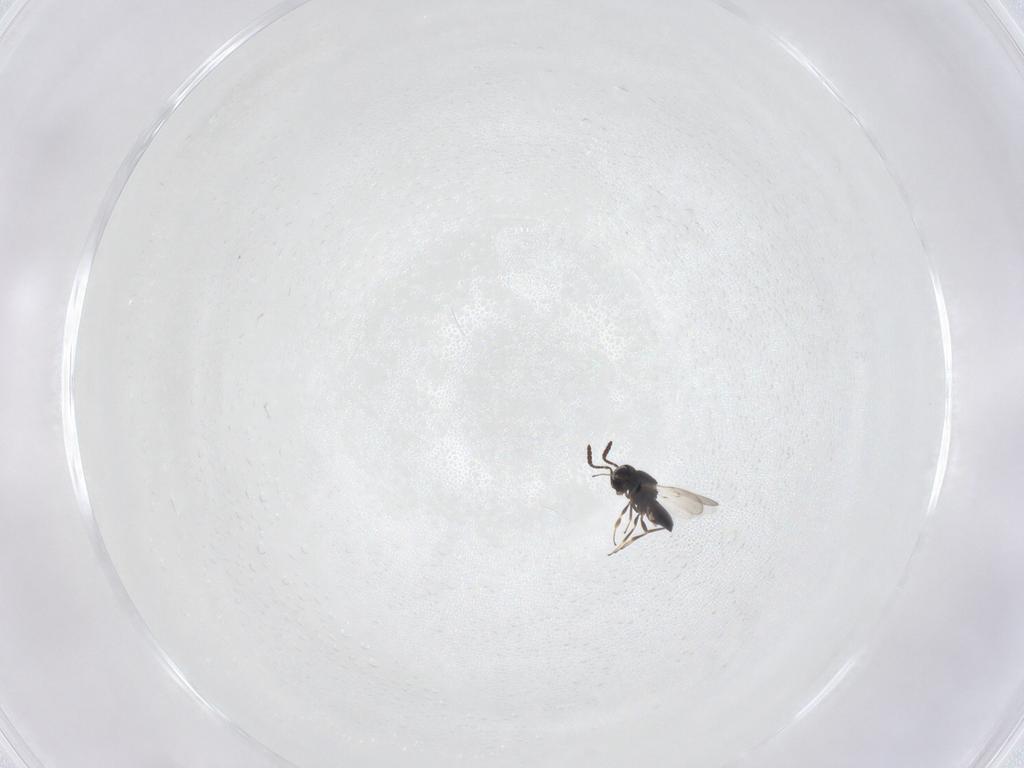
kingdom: Animalia
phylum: Arthropoda
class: Insecta
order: Hymenoptera
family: Scelionidae
